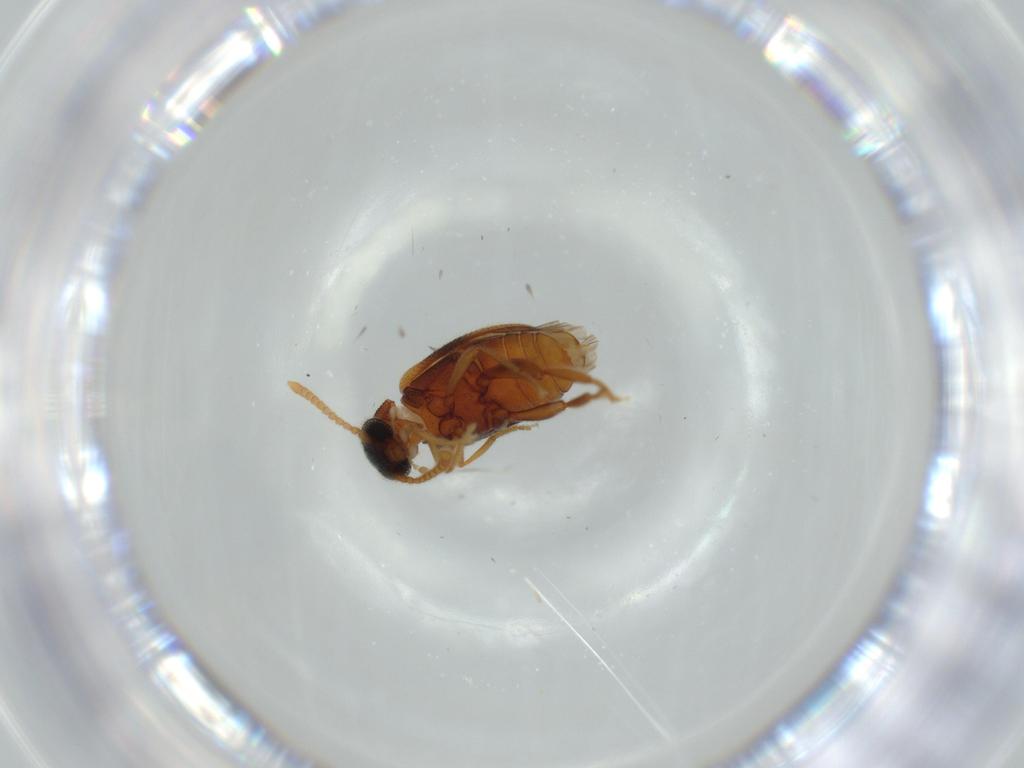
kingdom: Animalia
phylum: Arthropoda
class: Insecta
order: Coleoptera
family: Aderidae
